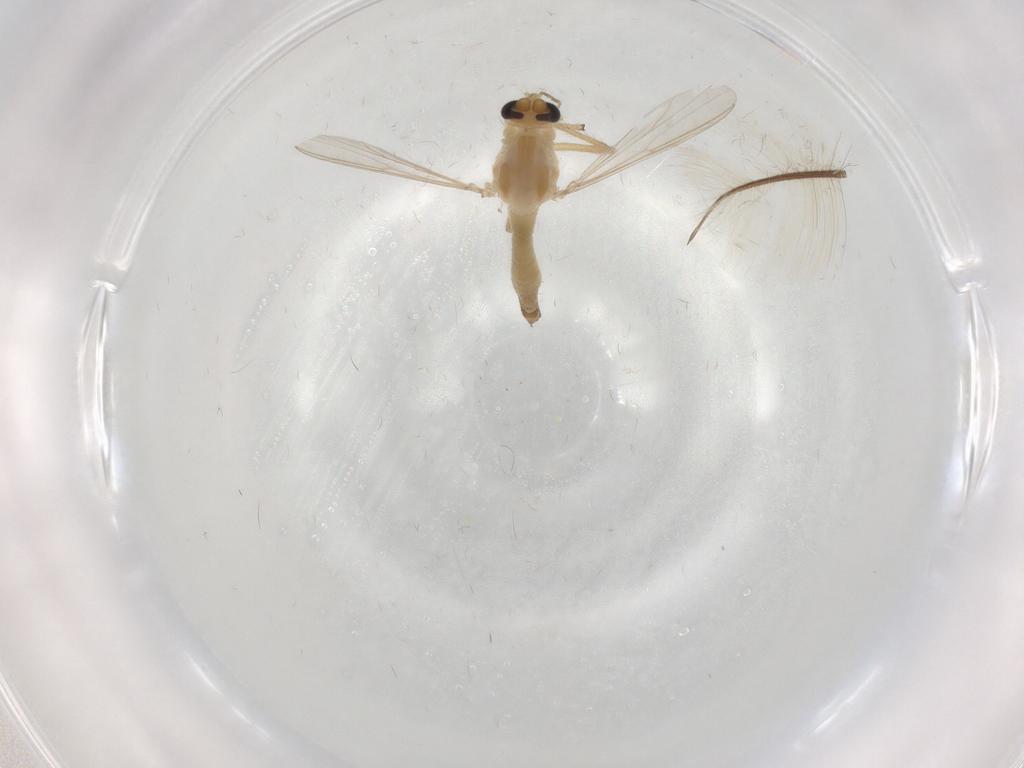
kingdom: Animalia
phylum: Arthropoda
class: Insecta
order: Diptera
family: Chironomidae
